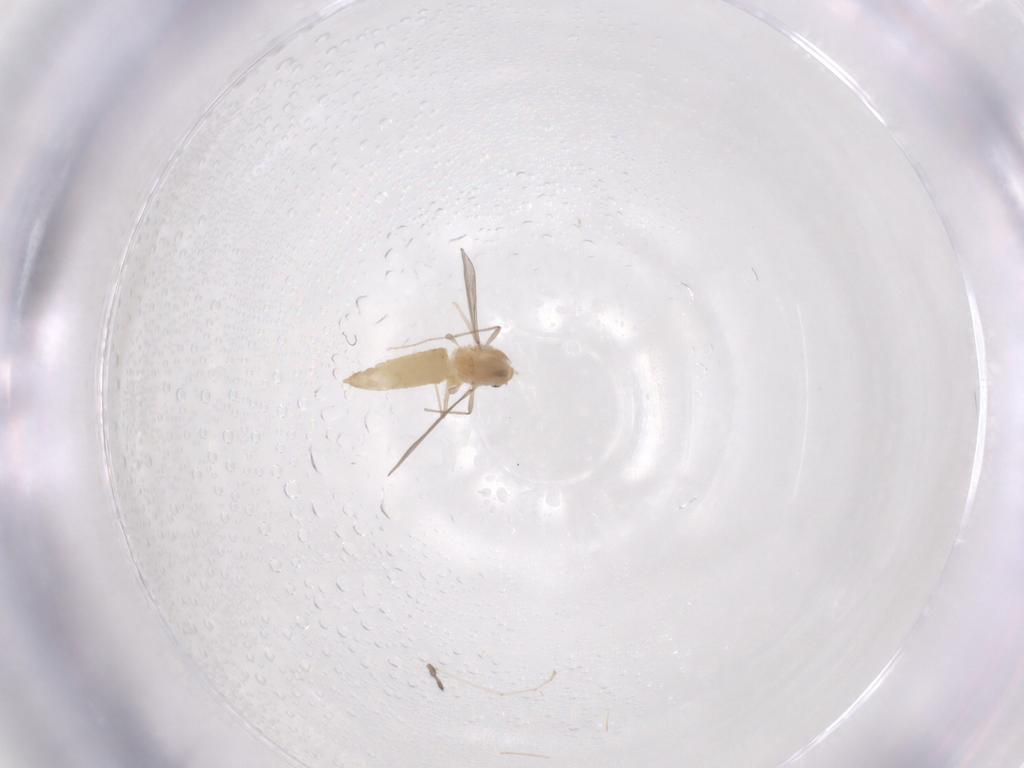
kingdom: Animalia
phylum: Arthropoda
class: Insecta
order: Diptera
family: Chironomidae
